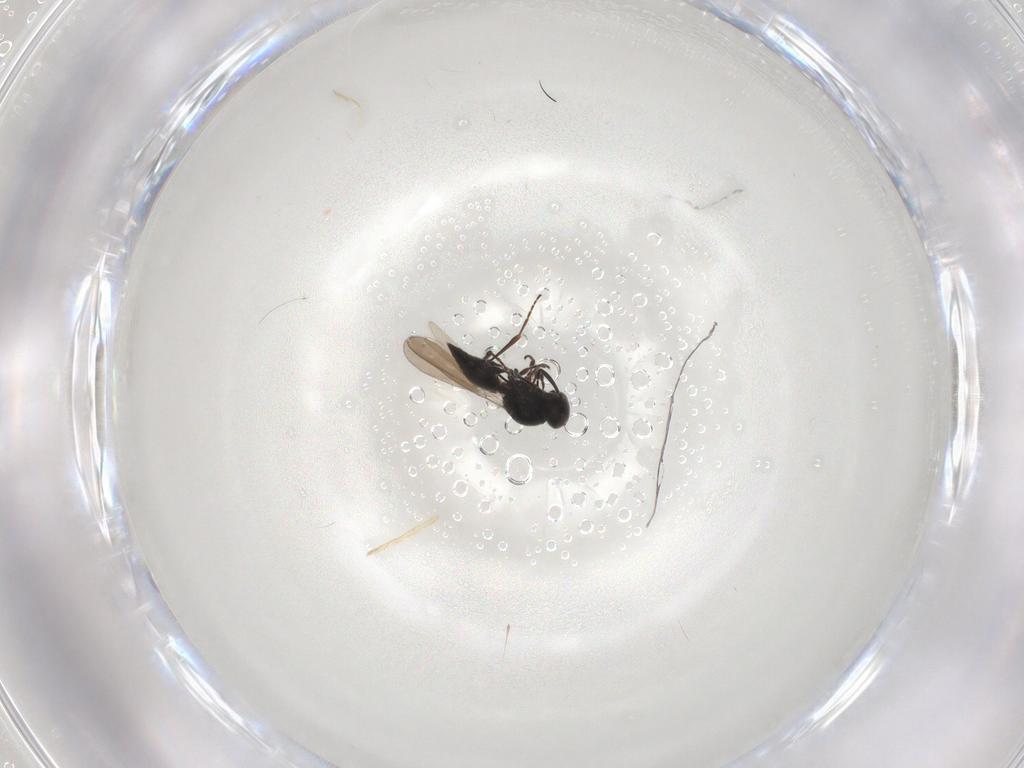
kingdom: Animalia
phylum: Arthropoda
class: Insecta
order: Hymenoptera
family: Platygastridae
